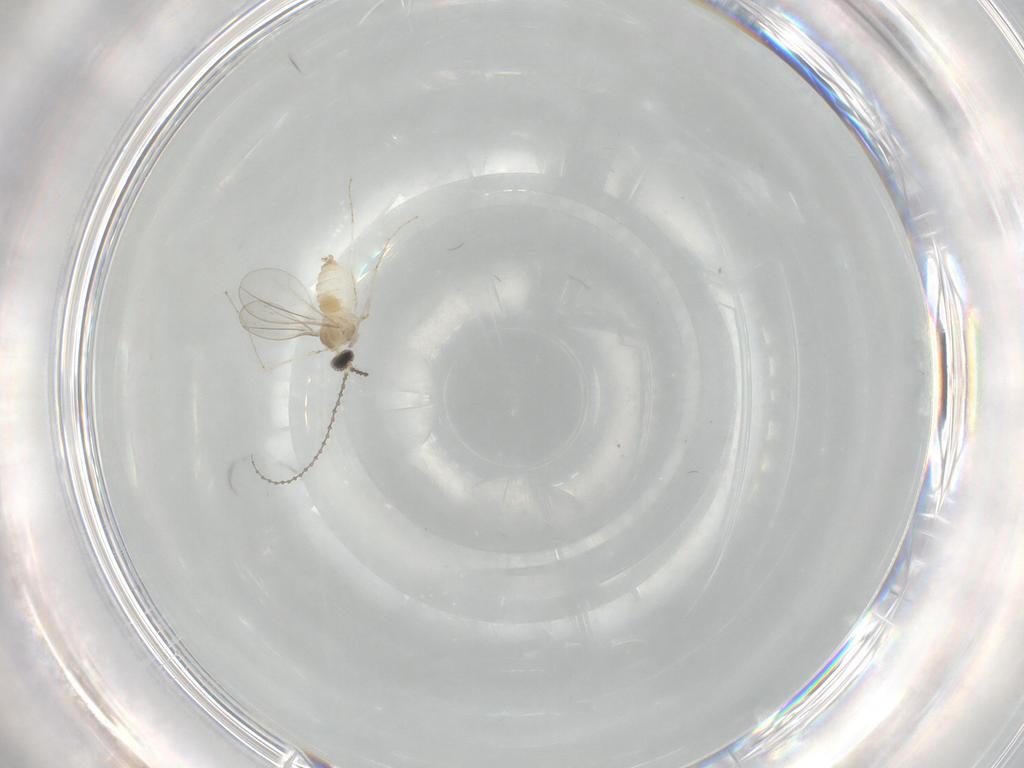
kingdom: Animalia
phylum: Arthropoda
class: Insecta
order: Diptera
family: Cecidomyiidae
